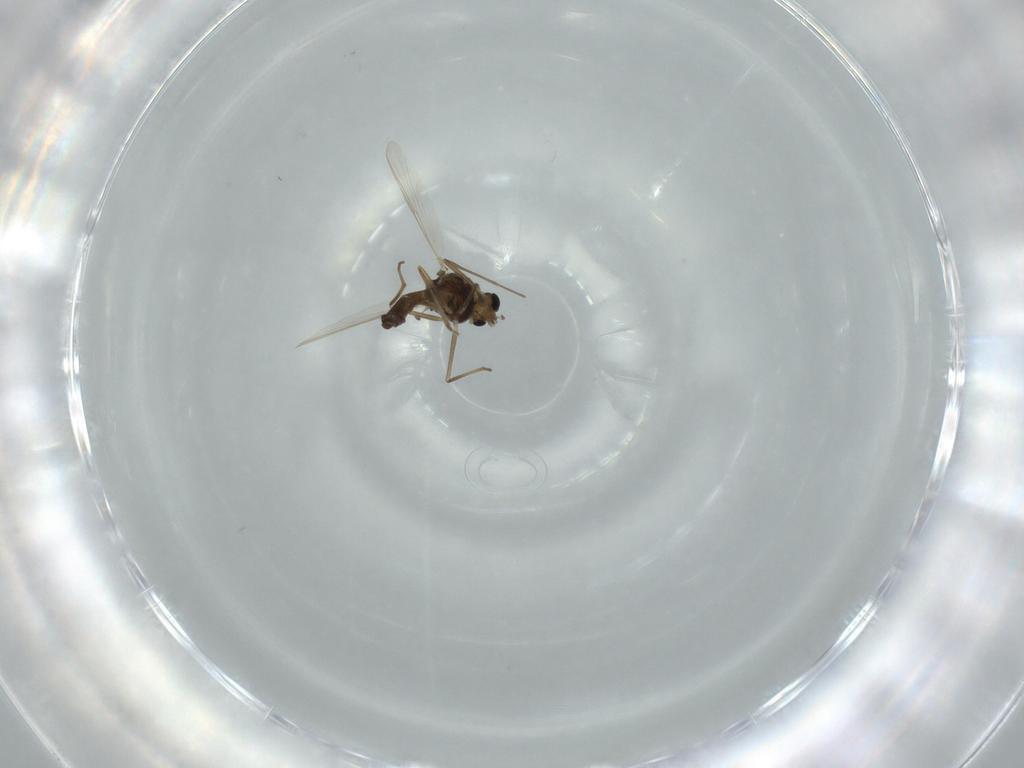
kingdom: Animalia
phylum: Arthropoda
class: Insecta
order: Diptera
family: Chironomidae
